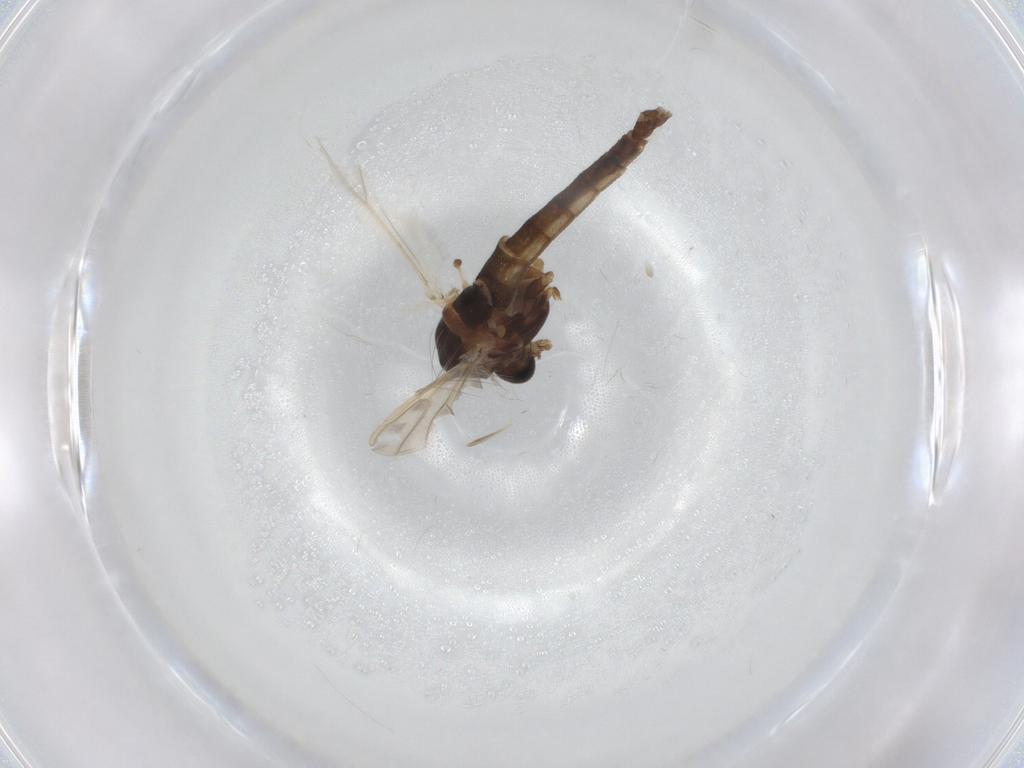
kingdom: Animalia
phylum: Arthropoda
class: Insecta
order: Diptera
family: Chironomidae
